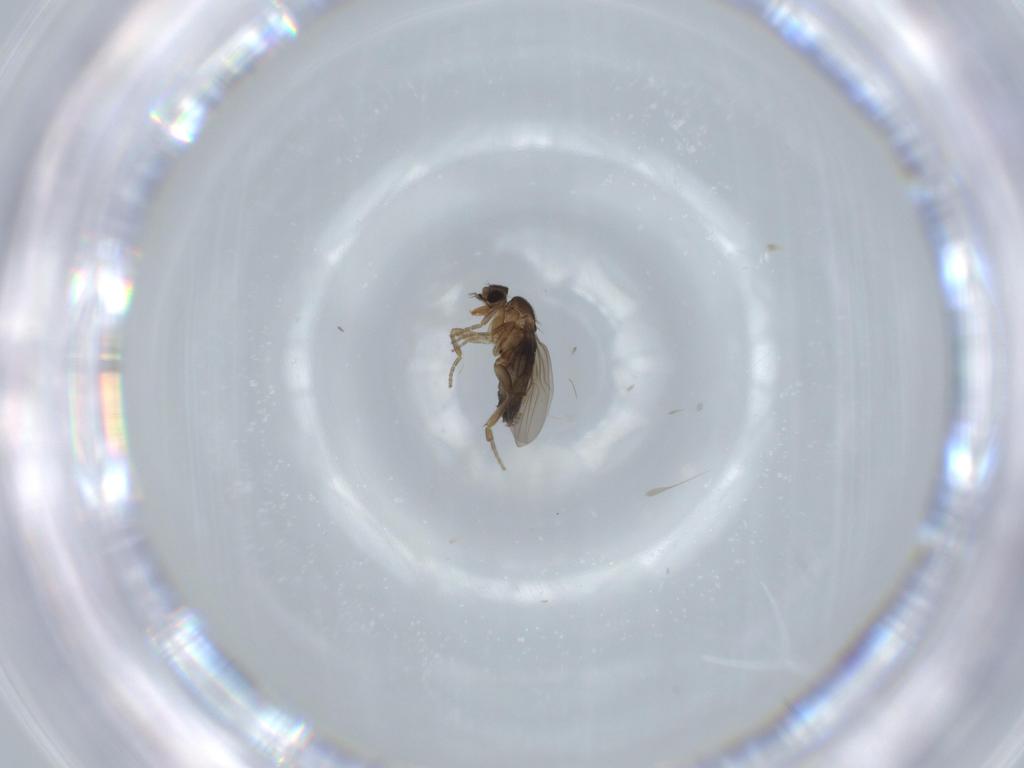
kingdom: Animalia
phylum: Arthropoda
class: Insecta
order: Diptera
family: Phoridae
